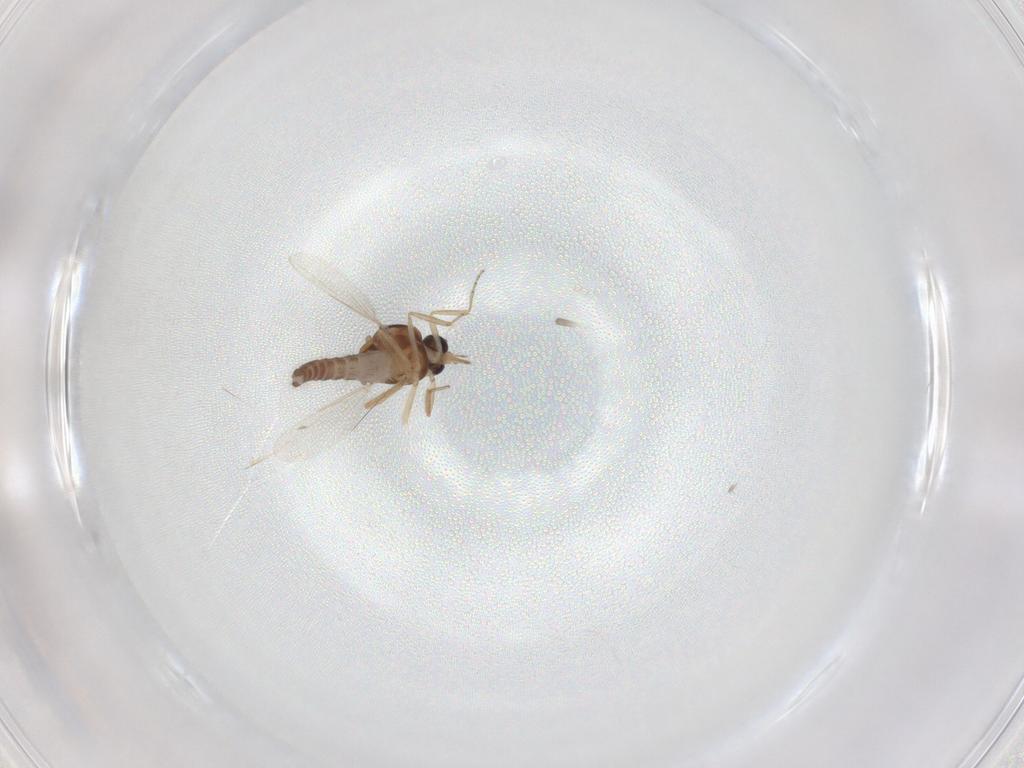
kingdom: Animalia
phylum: Arthropoda
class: Insecta
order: Diptera
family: Ceratopogonidae
